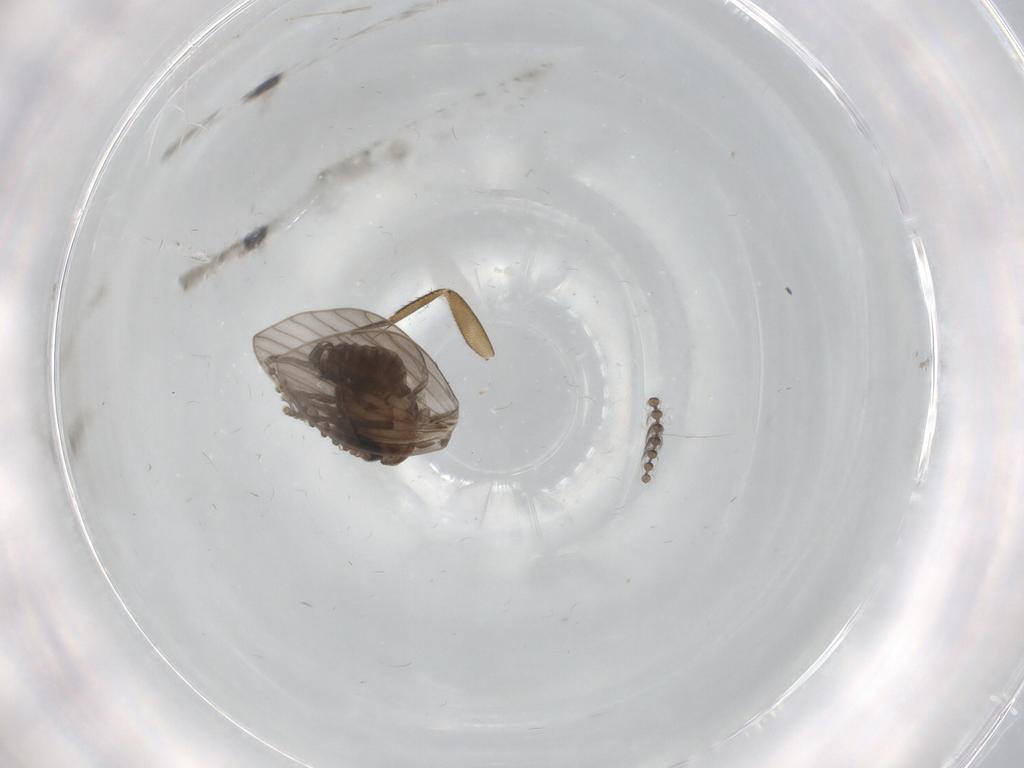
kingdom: Animalia
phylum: Arthropoda
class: Insecta
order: Diptera
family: Psychodidae
